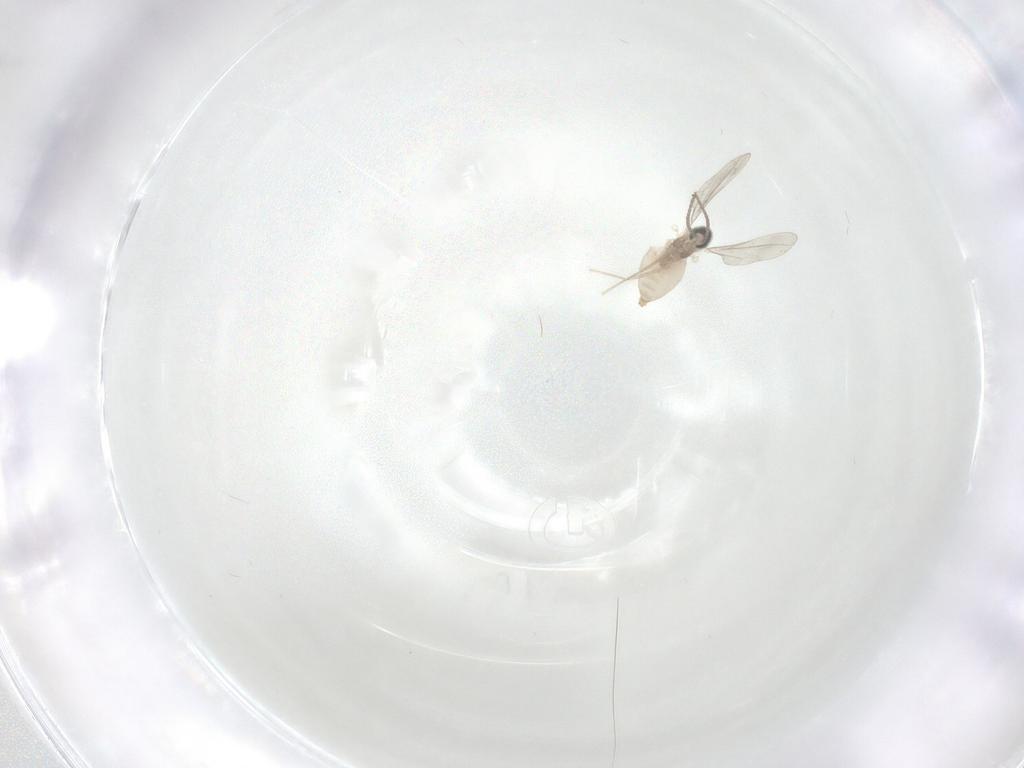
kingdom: Animalia
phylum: Arthropoda
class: Insecta
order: Diptera
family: Cecidomyiidae
